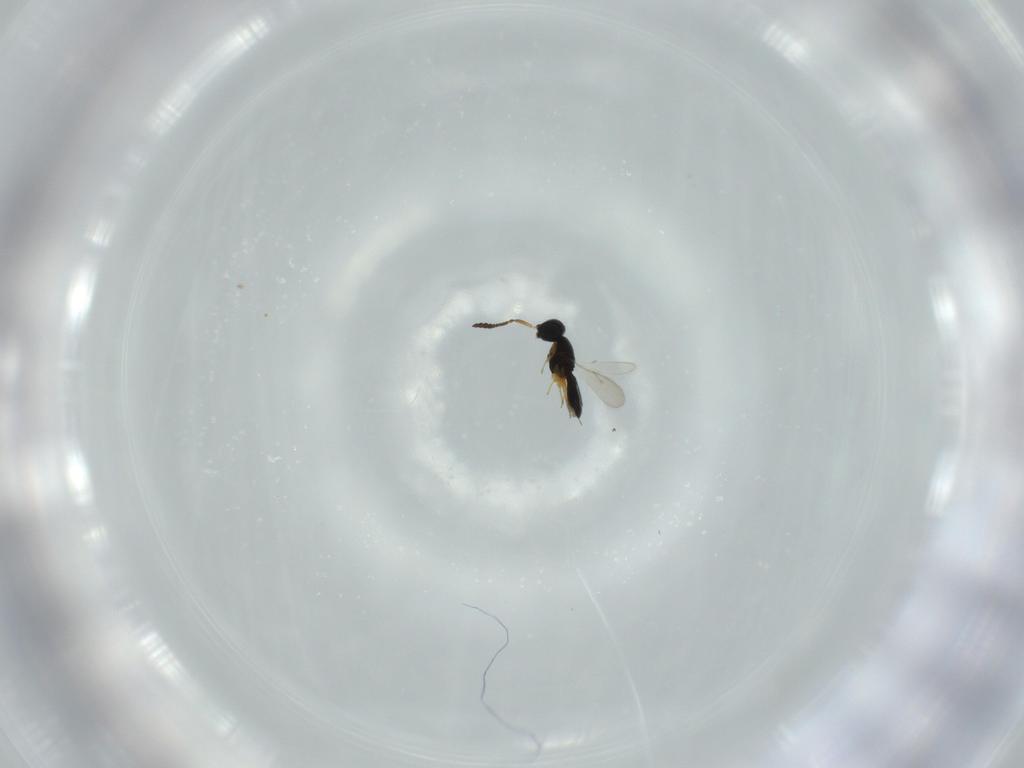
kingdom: Animalia
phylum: Arthropoda
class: Insecta
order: Hymenoptera
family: Scelionidae
